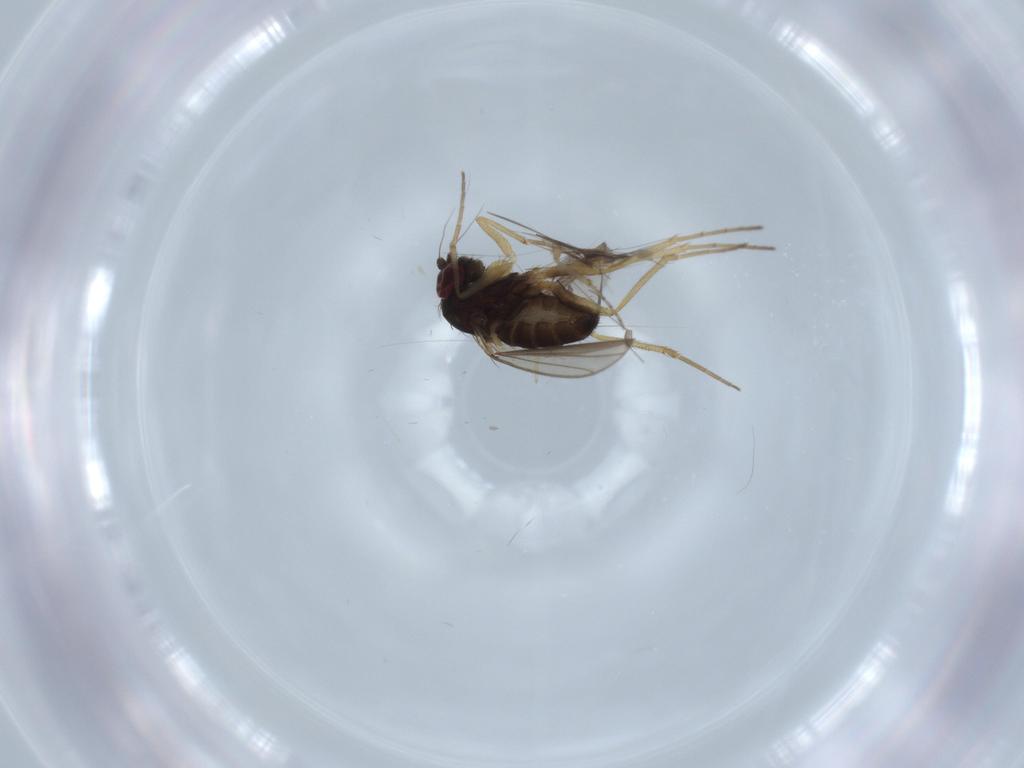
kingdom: Animalia
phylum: Arthropoda
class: Insecta
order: Diptera
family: Dolichopodidae
